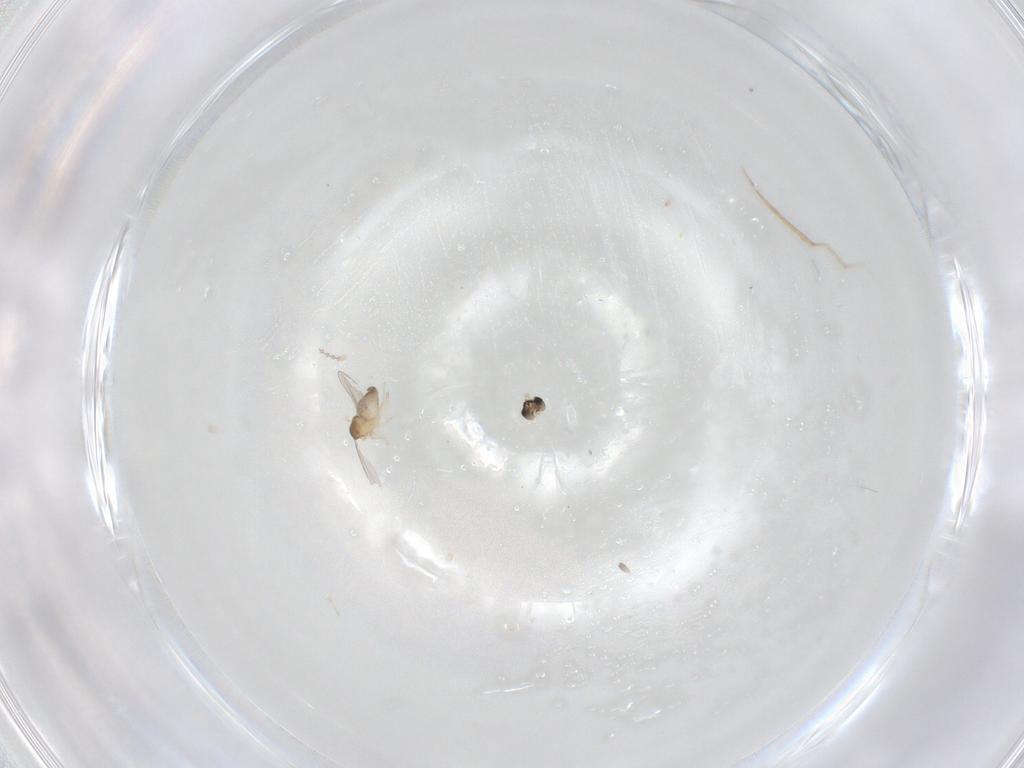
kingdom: Animalia
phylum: Arthropoda
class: Insecta
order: Diptera
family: Cecidomyiidae
